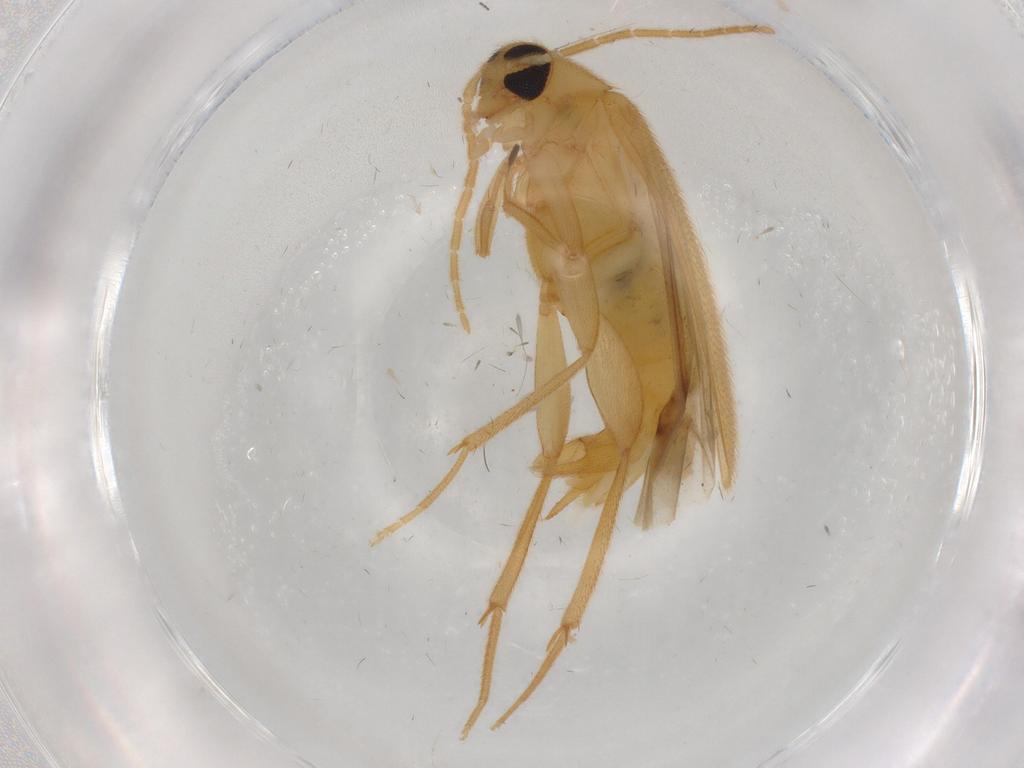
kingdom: Animalia
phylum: Arthropoda
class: Insecta
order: Coleoptera
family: Scraptiidae
